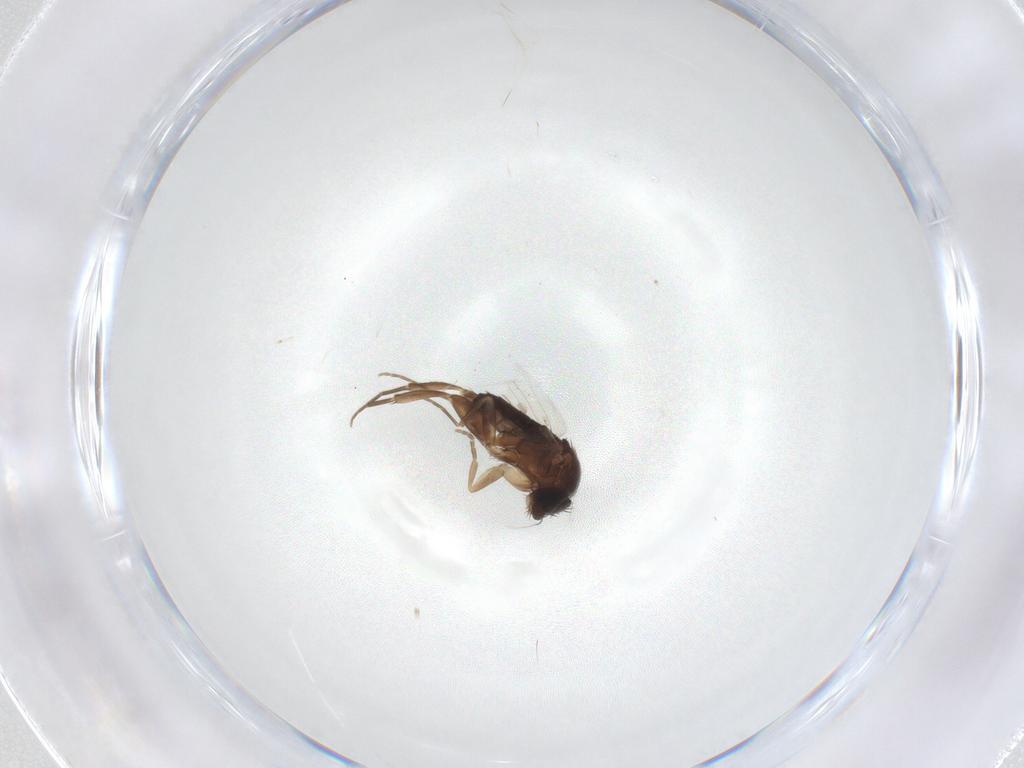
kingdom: Animalia
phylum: Arthropoda
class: Insecta
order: Diptera
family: Phoridae
